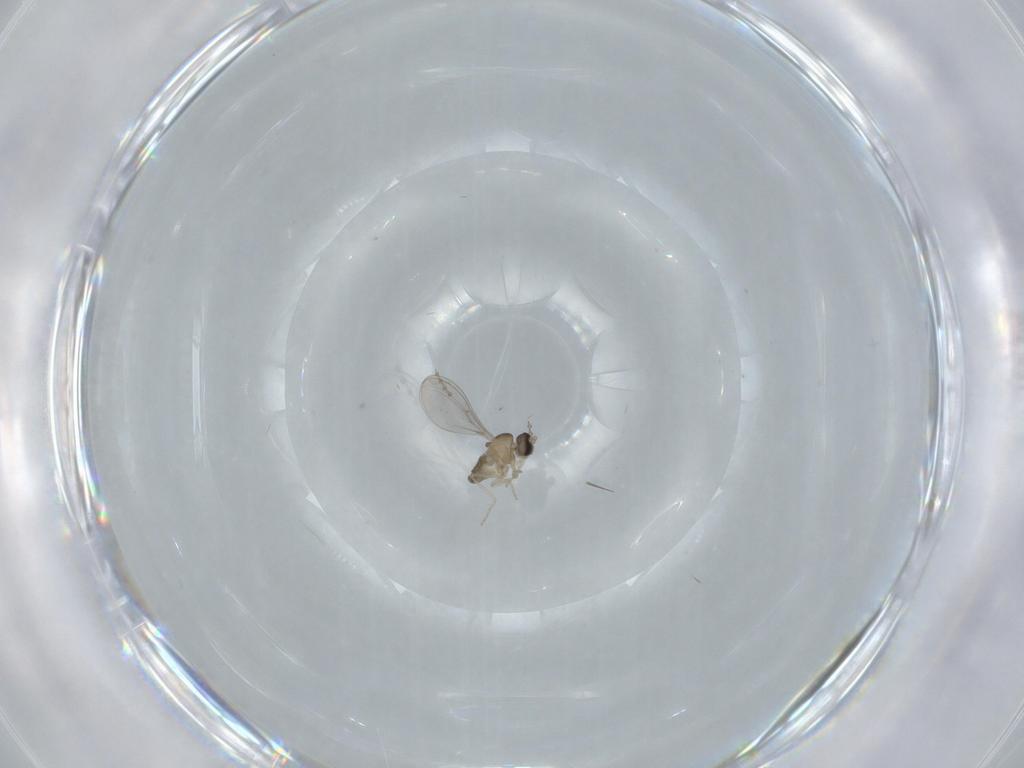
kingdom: Animalia
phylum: Arthropoda
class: Insecta
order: Diptera
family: Cecidomyiidae
